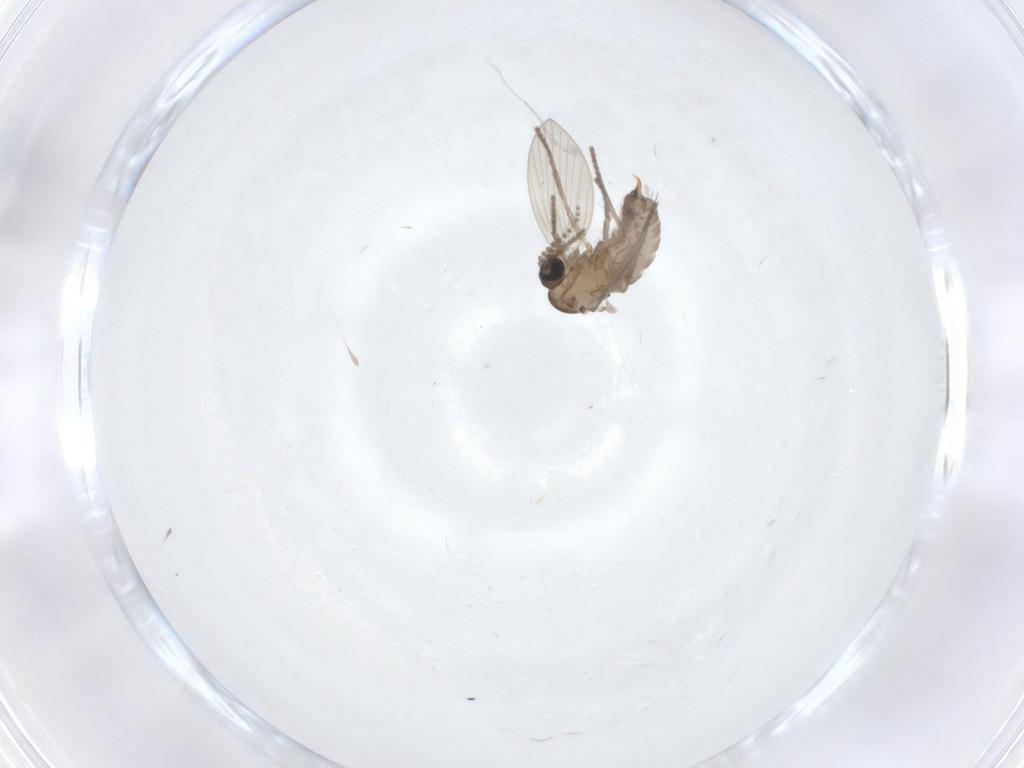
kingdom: Animalia
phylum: Arthropoda
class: Insecta
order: Diptera
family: Psychodidae
